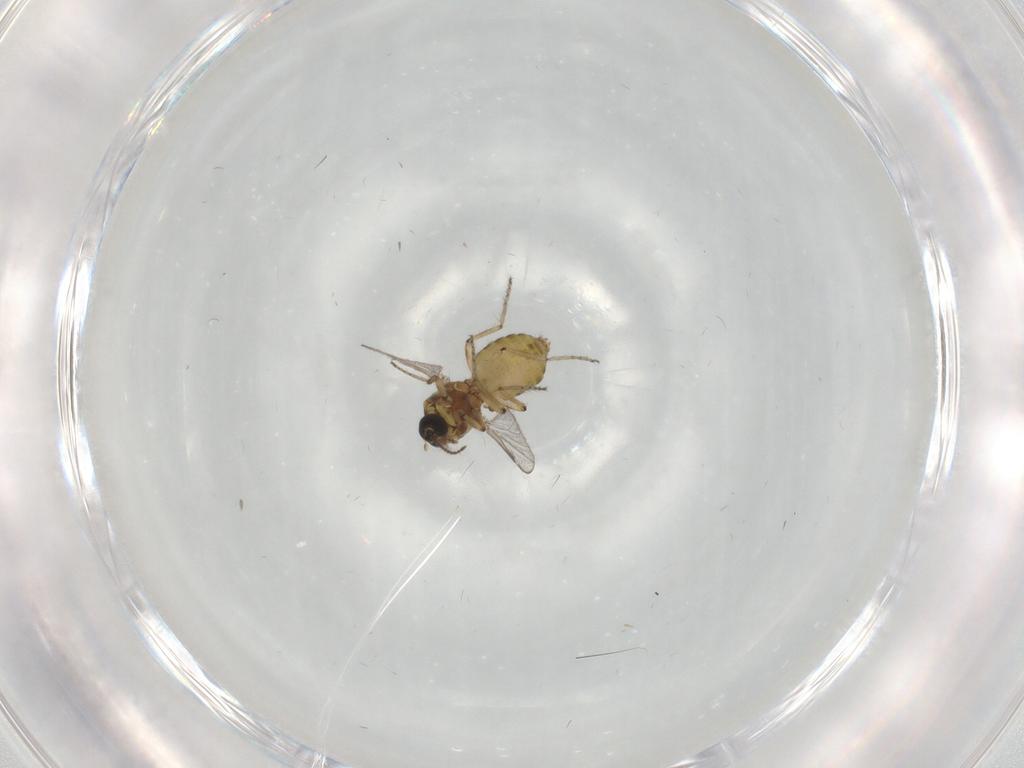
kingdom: Animalia
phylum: Arthropoda
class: Insecta
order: Diptera
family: Ceratopogonidae
